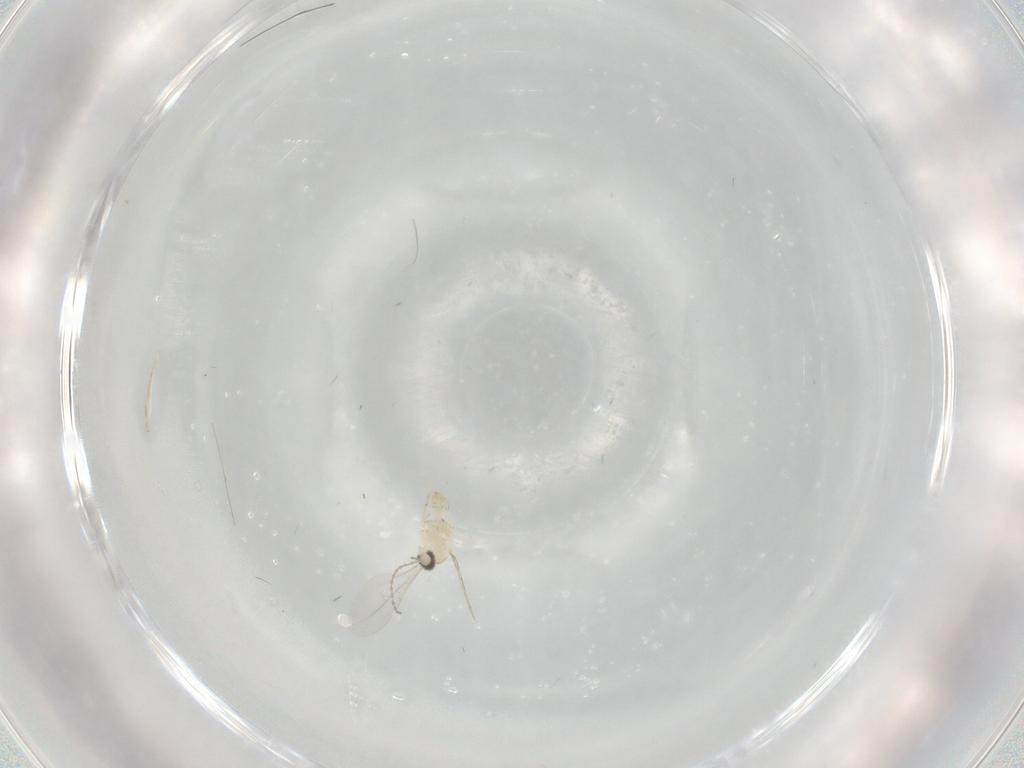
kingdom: Animalia
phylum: Arthropoda
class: Insecta
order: Diptera
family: Cecidomyiidae
